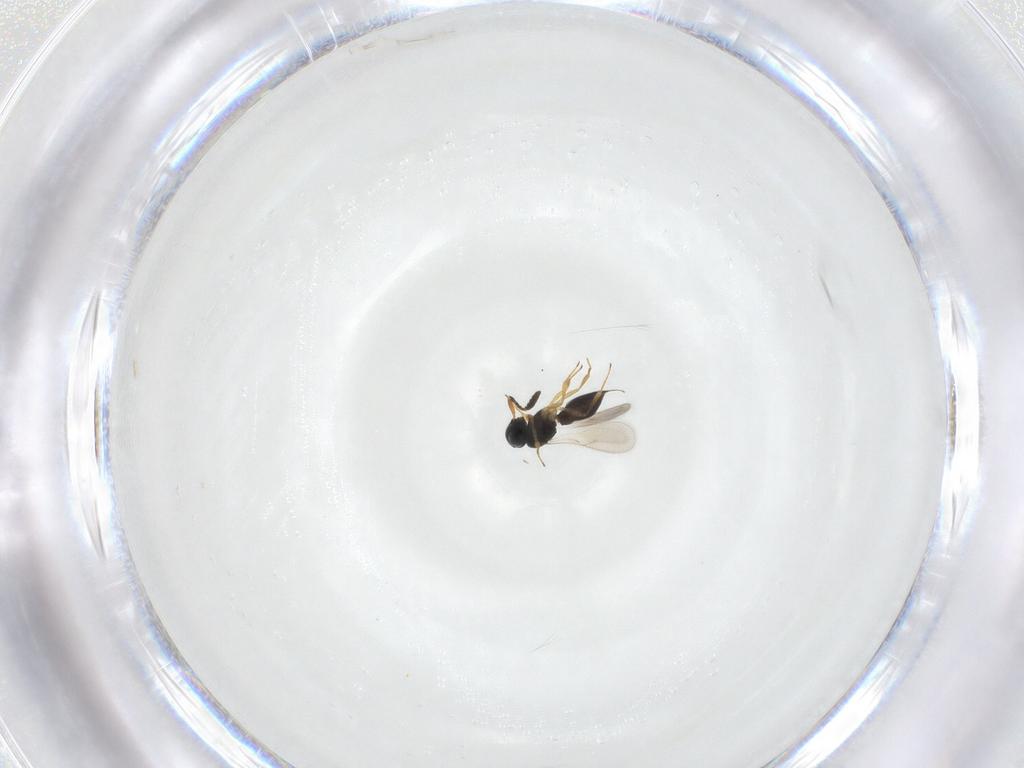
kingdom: Animalia
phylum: Arthropoda
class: Insecta
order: Hymenoptera
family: Scelionidae
